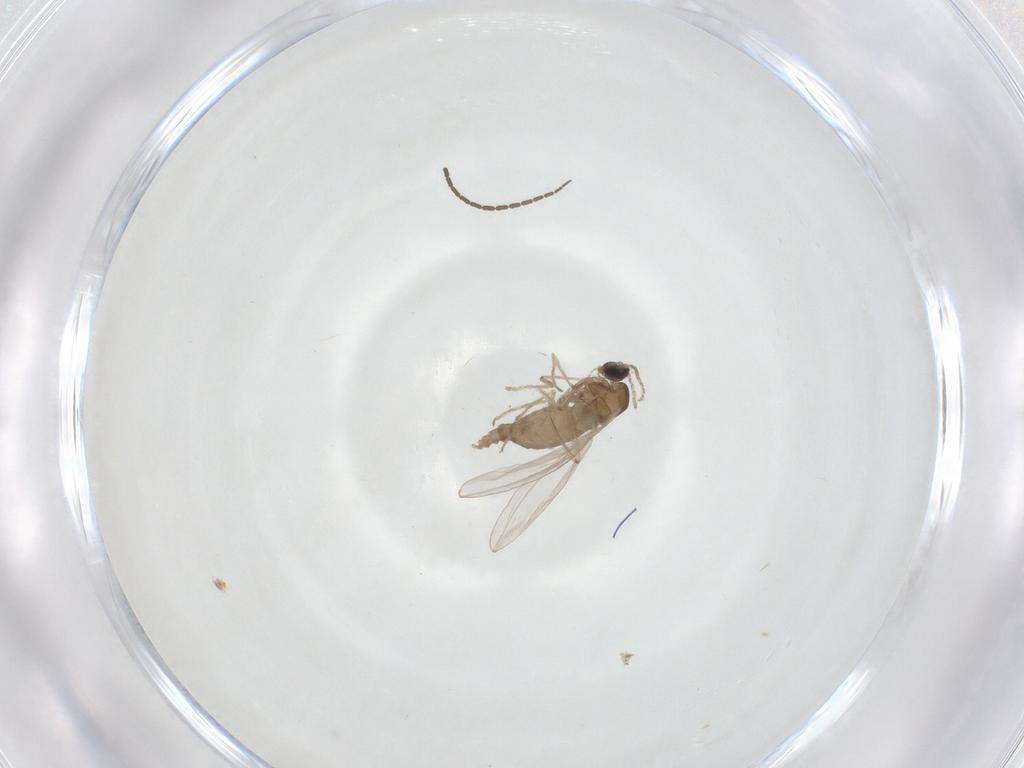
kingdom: Animalia
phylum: Arthropoda
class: Insecta
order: Diptera
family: Cecidomyiidae
